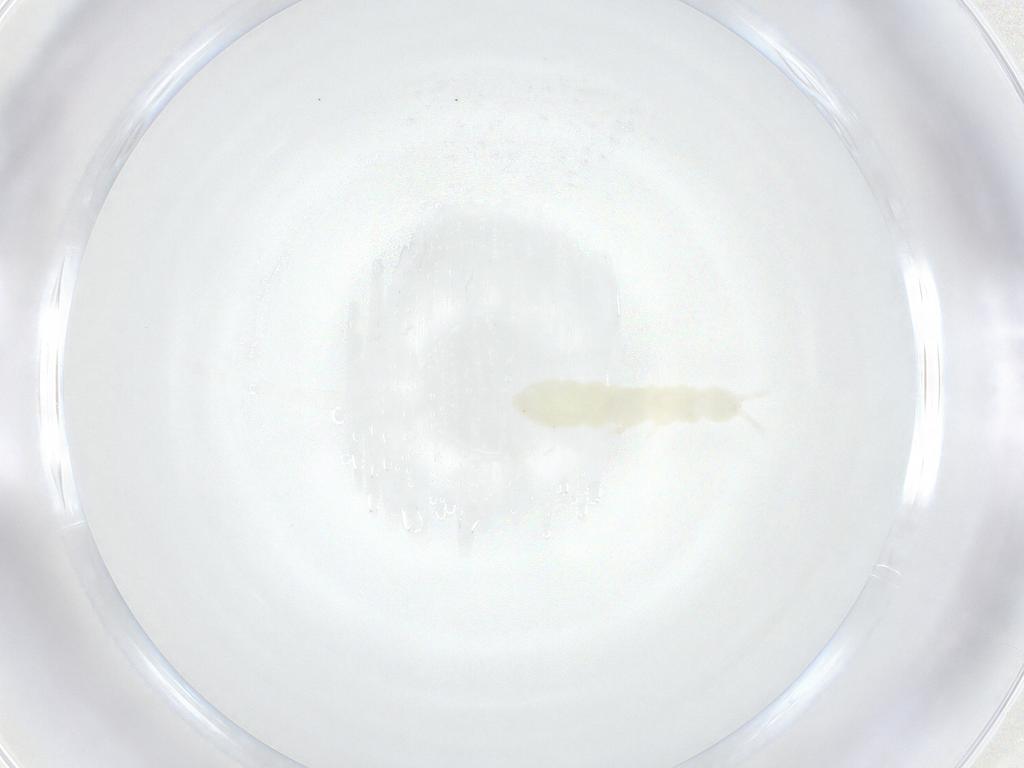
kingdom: Animalia
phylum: Arthropoda
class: Collembola
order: Poduromorpha
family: Onychiuridae
